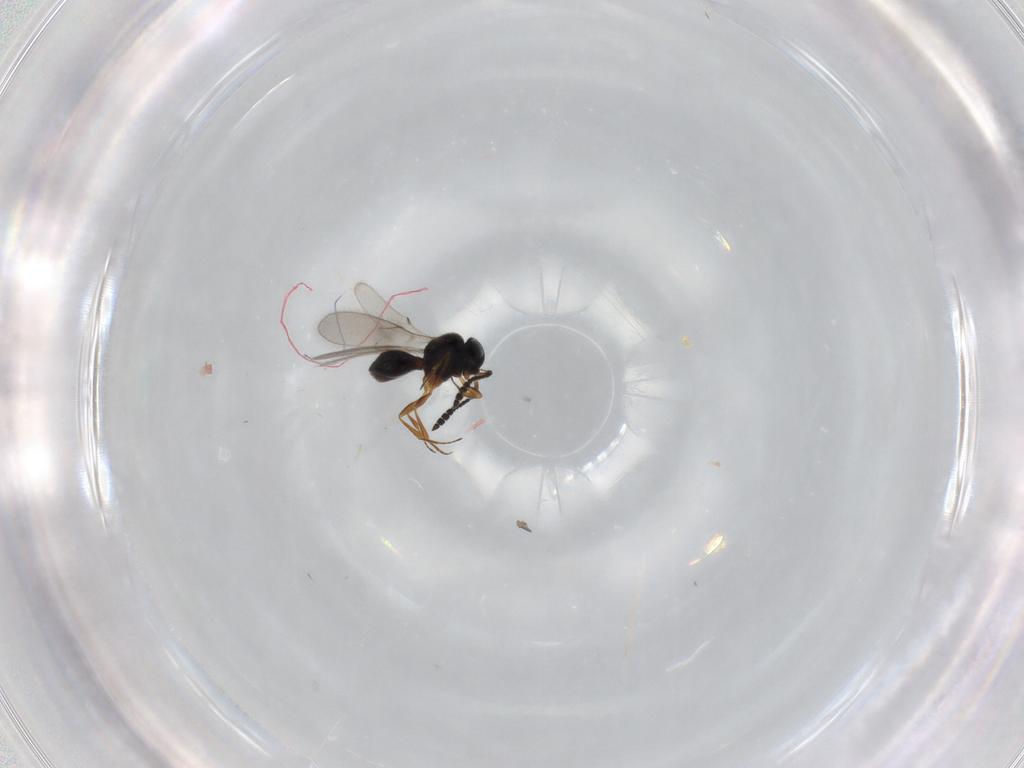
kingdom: Animalia
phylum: Arthropoda
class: Insecta
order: Hymenoptera
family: Scelionidae
